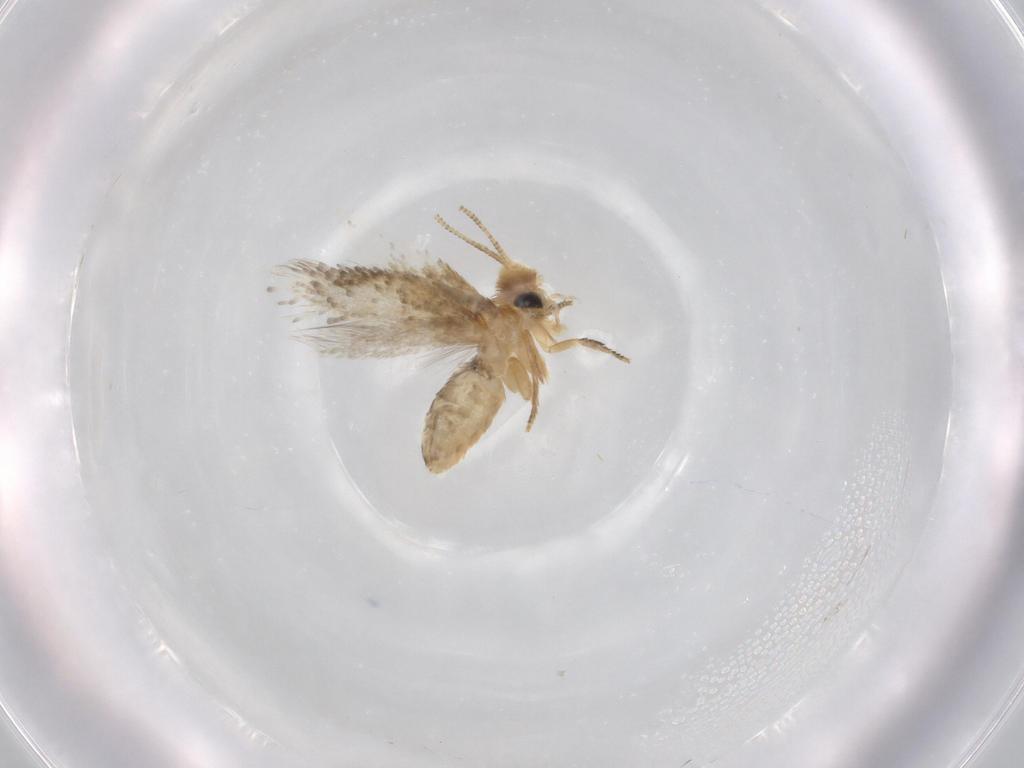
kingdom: Animalia
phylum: Arthropoda
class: Insecta
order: Lepidoptera
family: Nepticulidae
